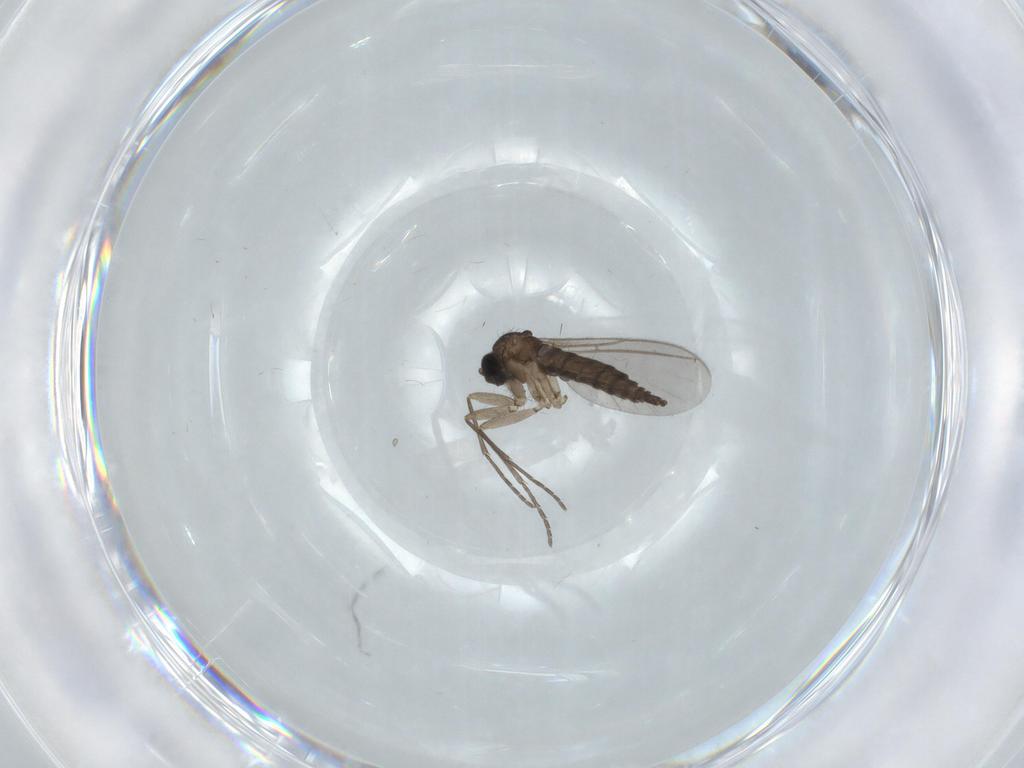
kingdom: Animalia
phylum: Arthropoda
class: Insecta
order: Diptera
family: Sciaridae
